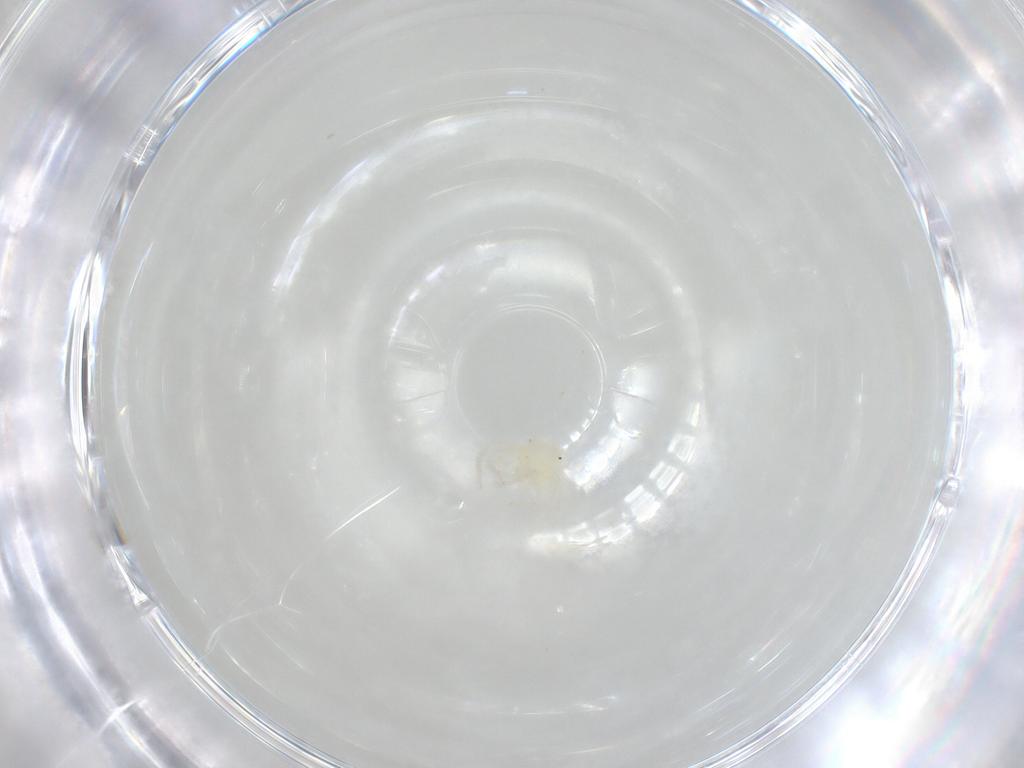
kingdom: Animalia
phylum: Arthropoda
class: Arachnida
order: Trombidiformes
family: Anystidae
